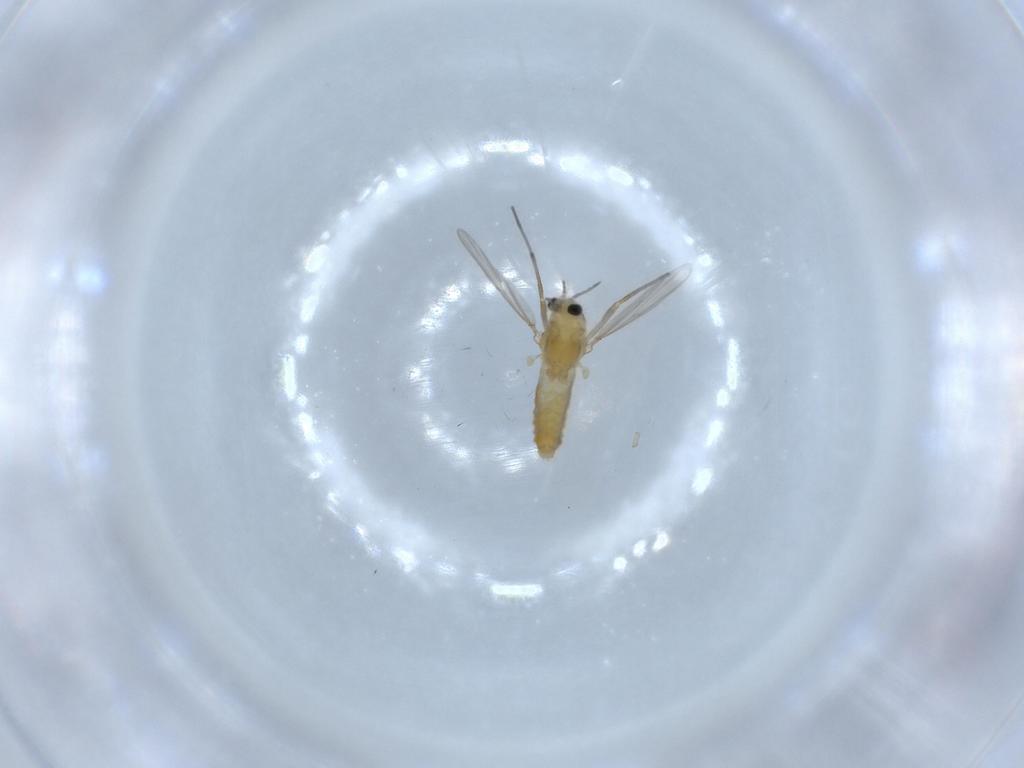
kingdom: Animalia
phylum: Arthropoda
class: Insecta
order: Diptera
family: Chironomidae
